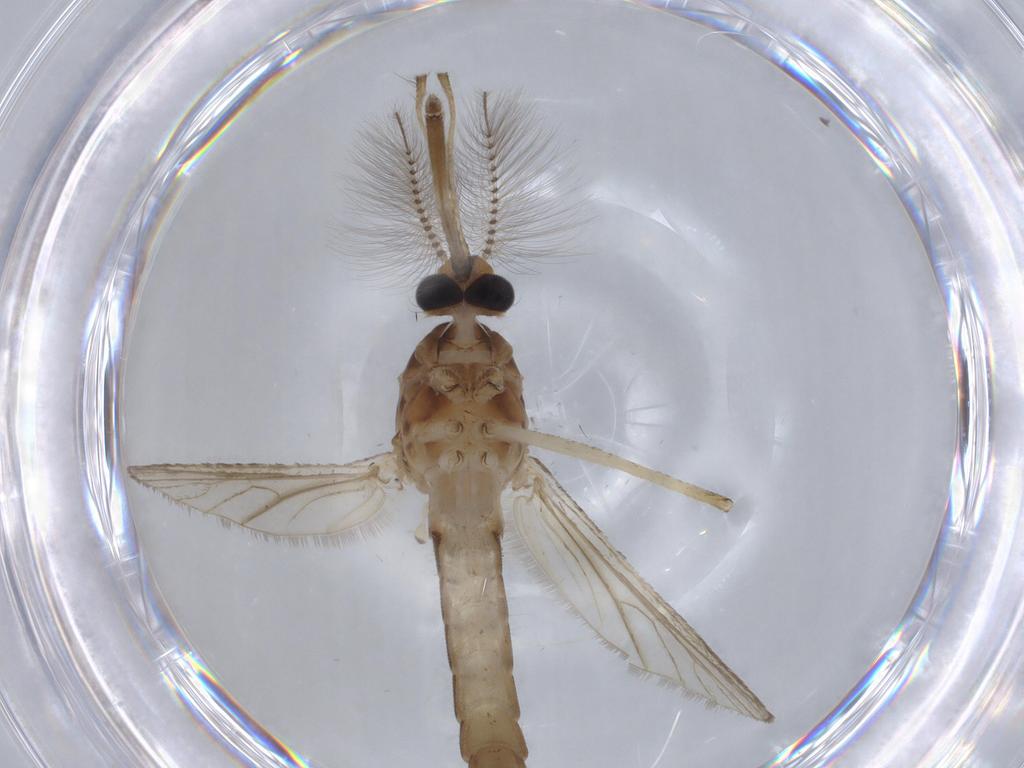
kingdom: Animalia
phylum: Arthropoda
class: Insecta
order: Diptera
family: Culicidae
